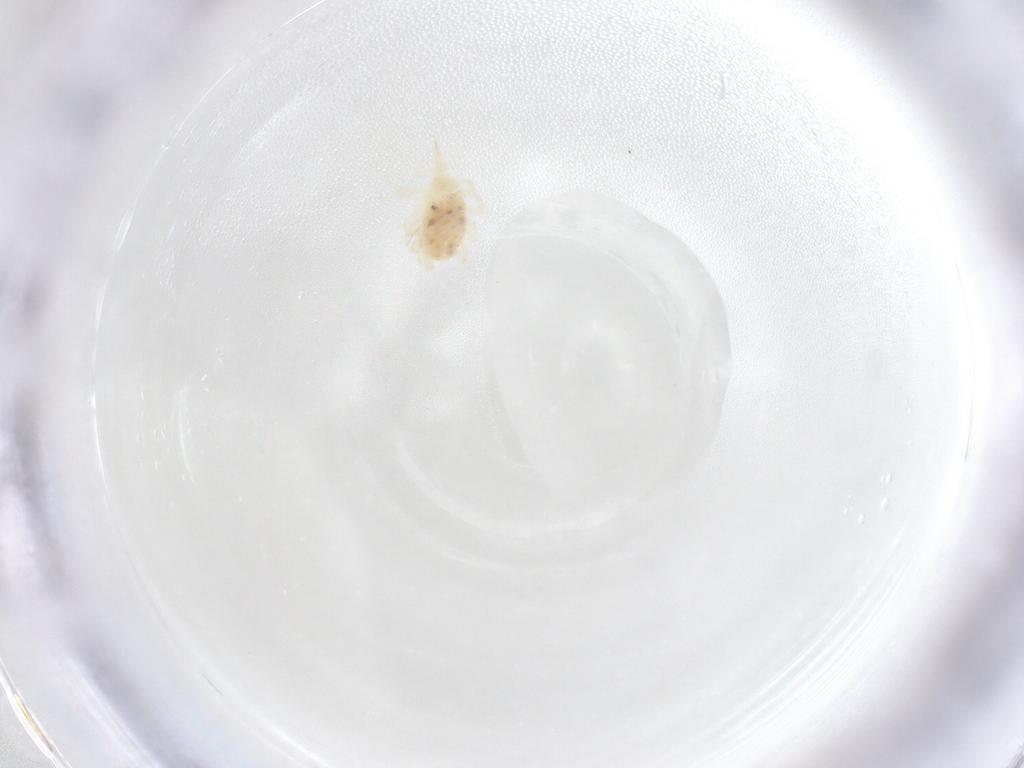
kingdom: Animalia
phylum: Arthropoda
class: Arachnida
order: Trombidiformes
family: Bdellidae
